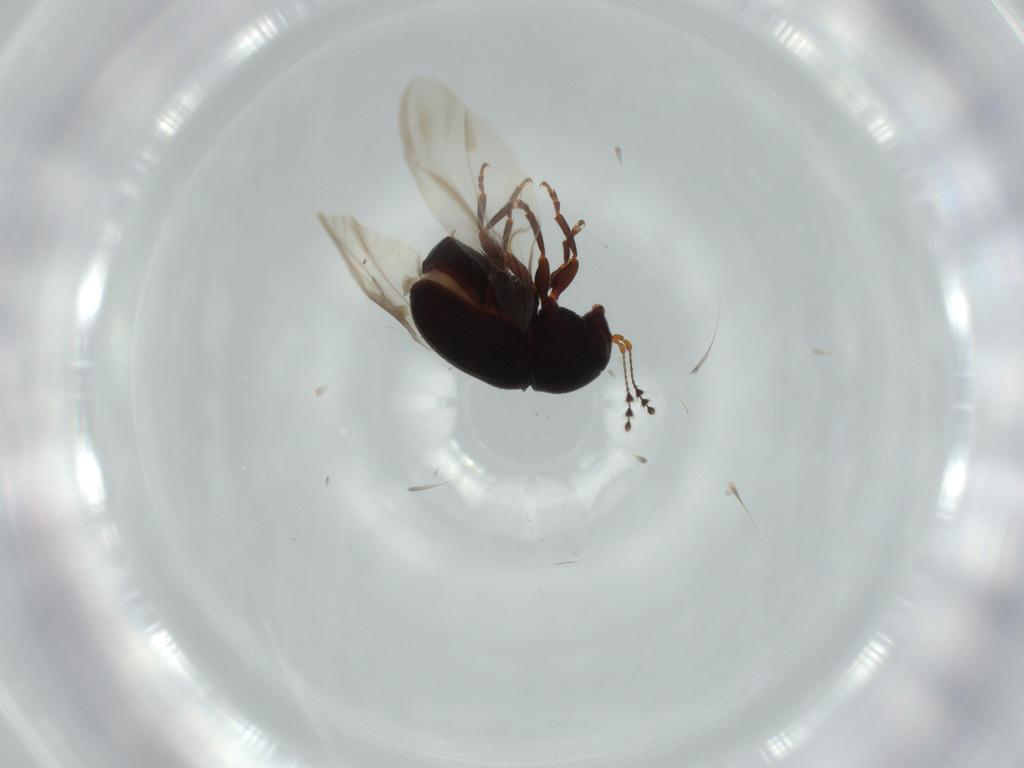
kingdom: Animalia
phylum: Arthropoda
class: Insecta
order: Coleoptera
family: Anthribidae
